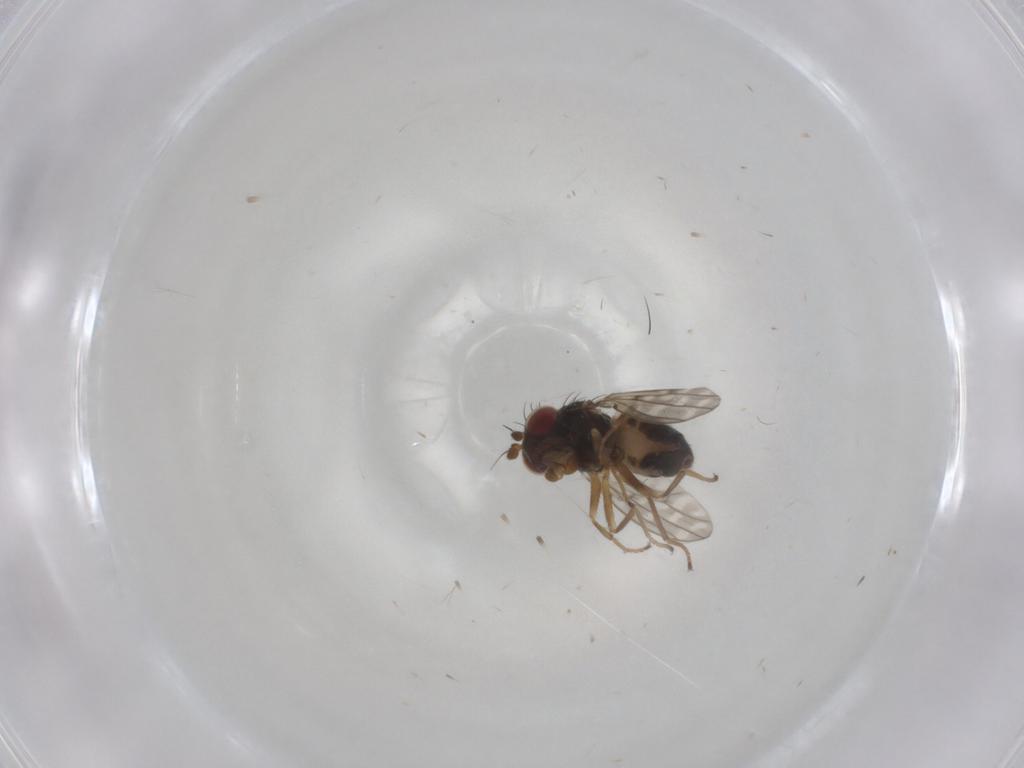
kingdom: Animalia
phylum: Arthropoda
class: Insecta
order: Diptera
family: Ephydridae
